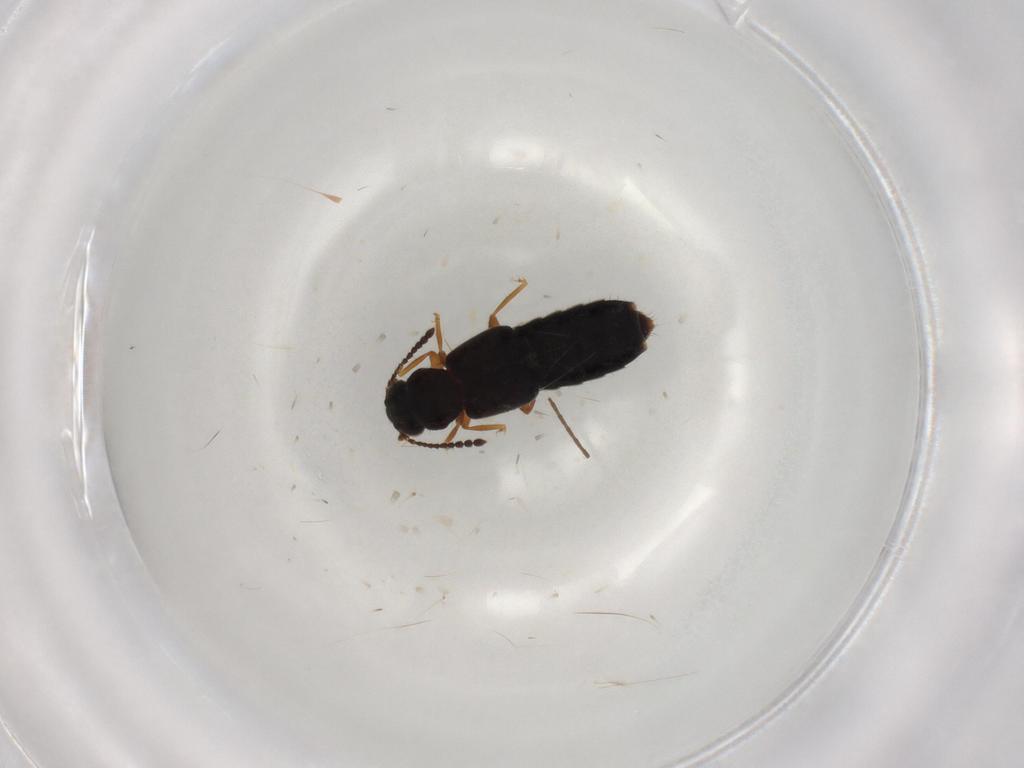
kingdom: Animalia
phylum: Arthropoda
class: Insecta
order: Coleoptera
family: Staphylinidae
